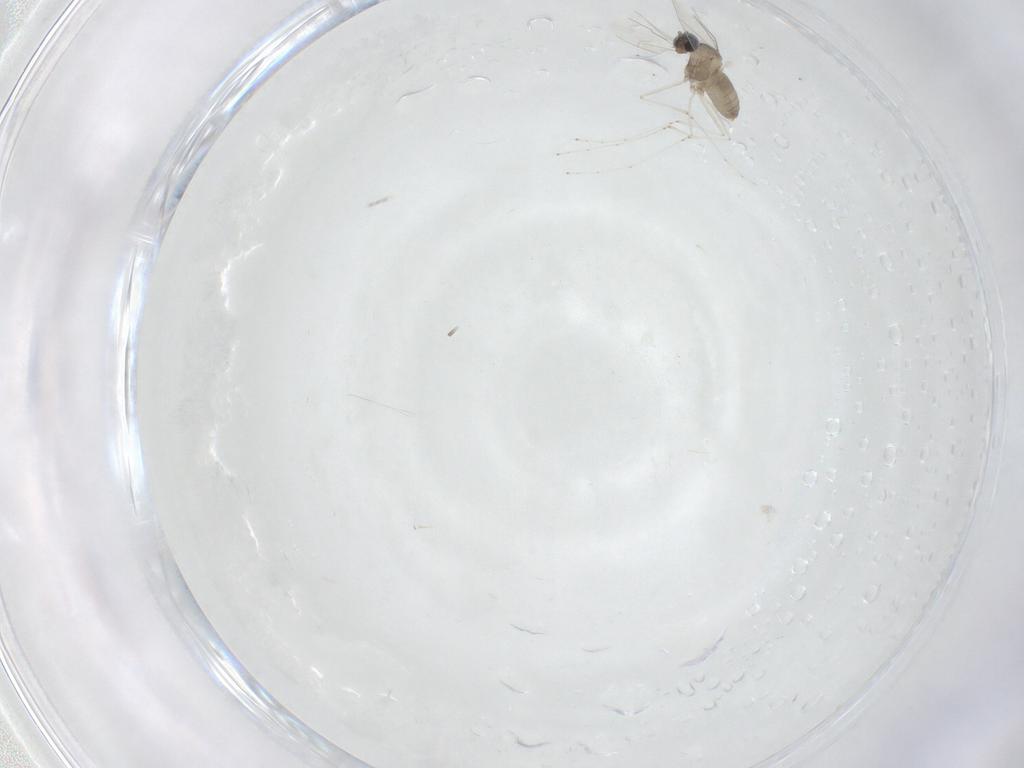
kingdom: Animalia
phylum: Arthropoda
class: Insecta
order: Diptera
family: Cecidomyiidae
